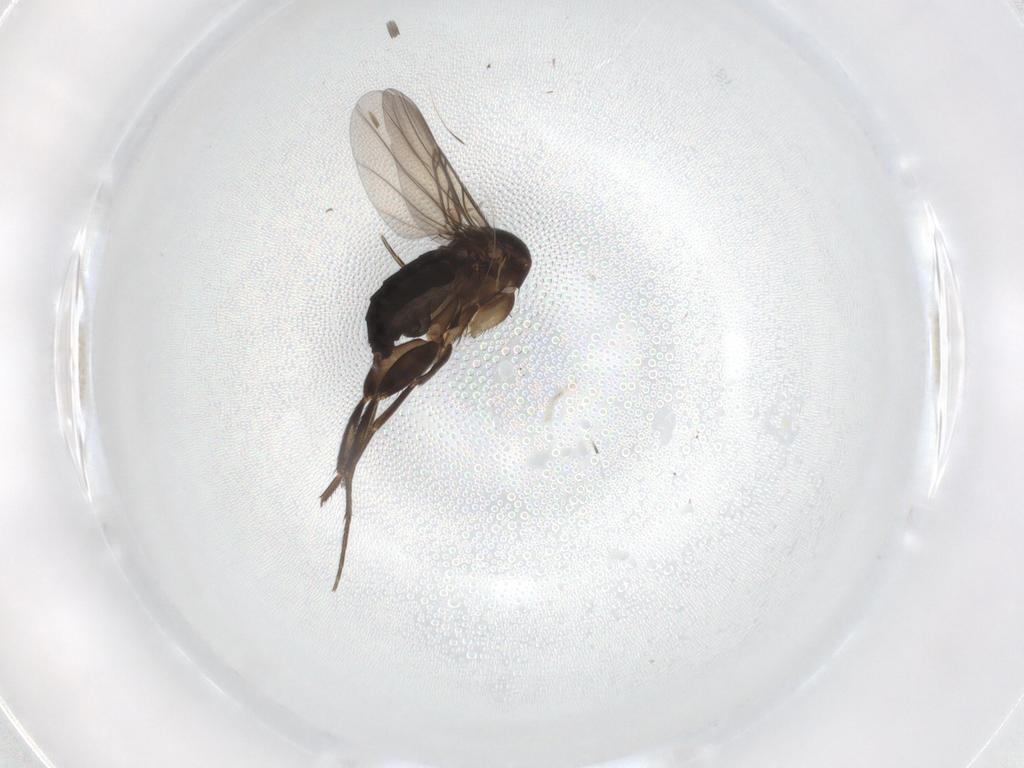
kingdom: Animalia
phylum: Arthropoda
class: Insecta
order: Diptera
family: Phoridae
